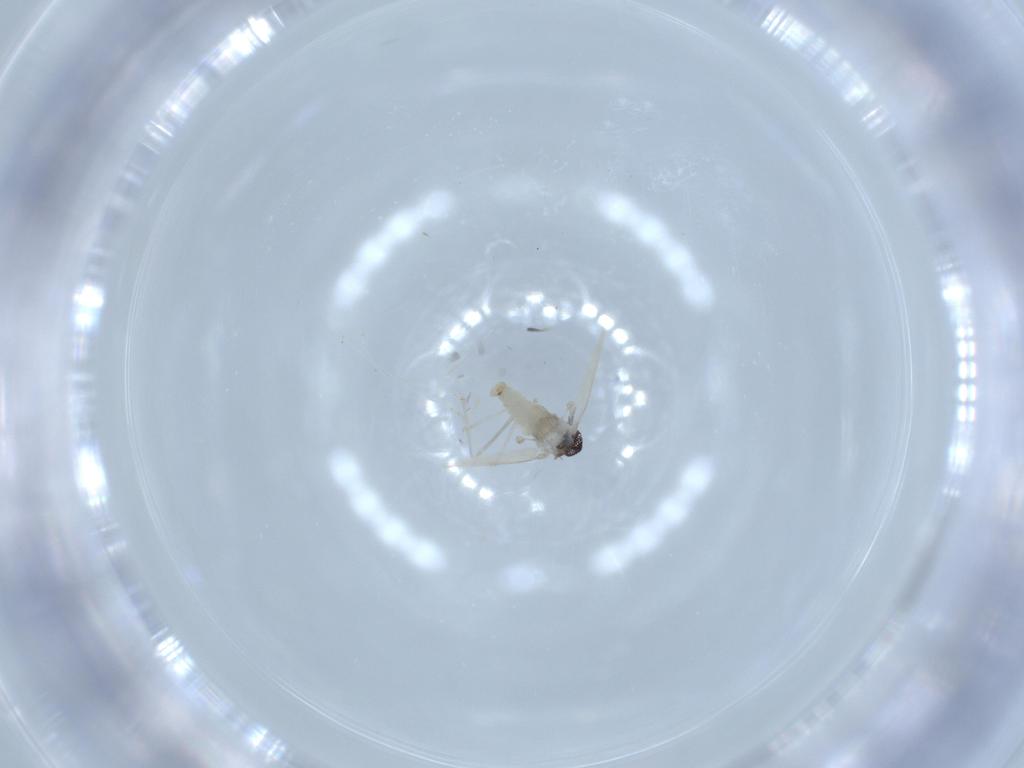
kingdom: Animalia
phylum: Arthropoda
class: Insecta
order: Diptera
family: Cecidomyiidae
